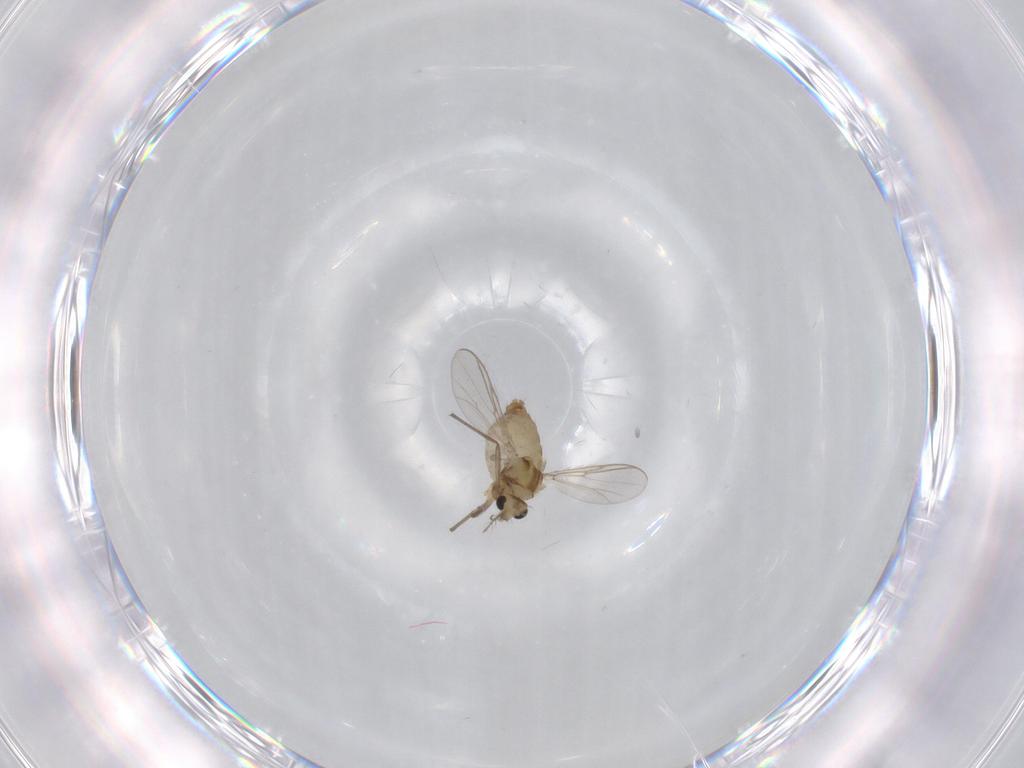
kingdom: Animalia
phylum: Arthropoda
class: Insecta
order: Diptera
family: Chironomidae
